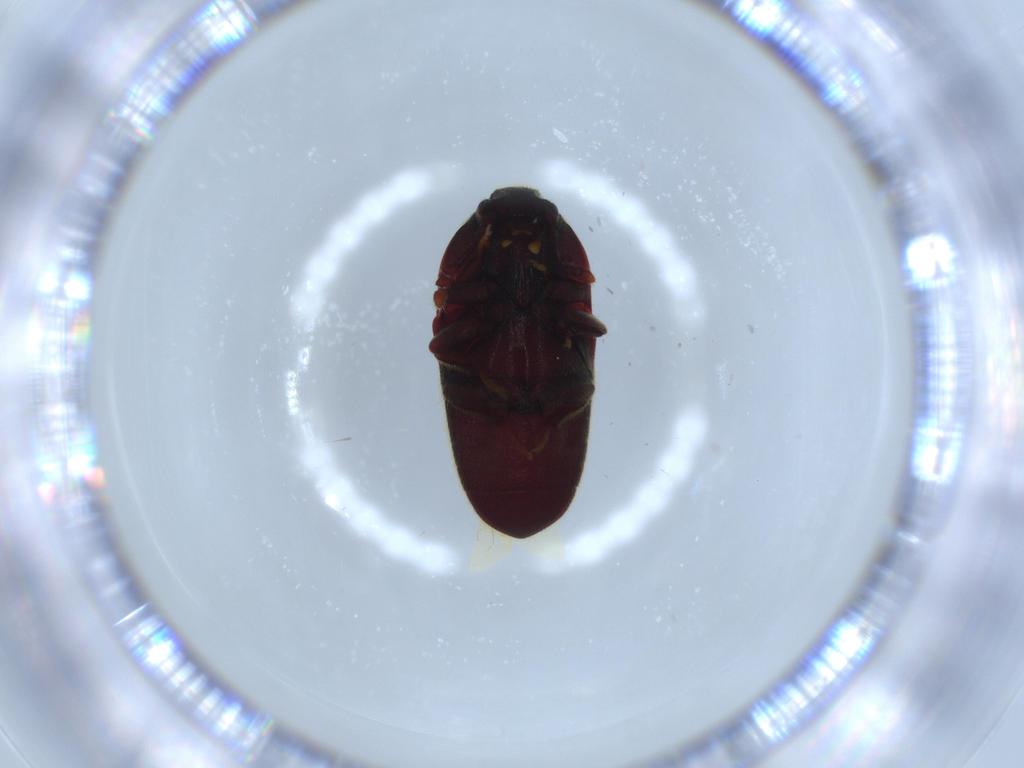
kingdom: Animalia
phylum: Arthropoda
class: Insecta
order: Coleoptera
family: Throscidae
